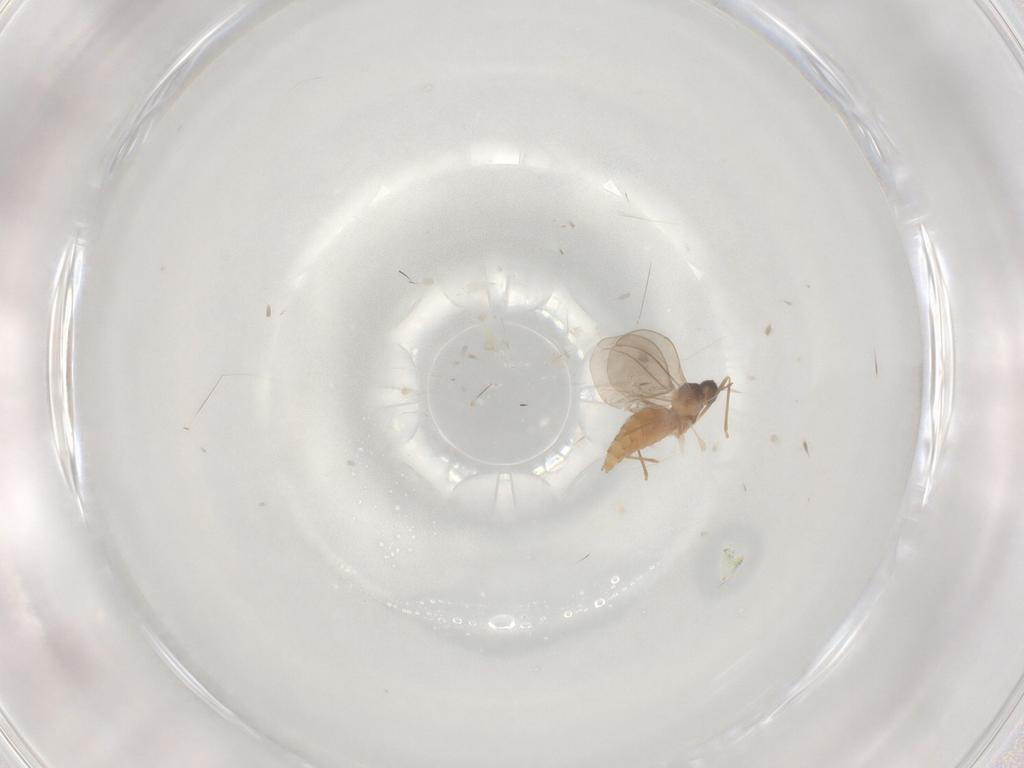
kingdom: Animalia
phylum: Arthropoda
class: Insecta
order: Diptera
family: Cecidomyiidae
